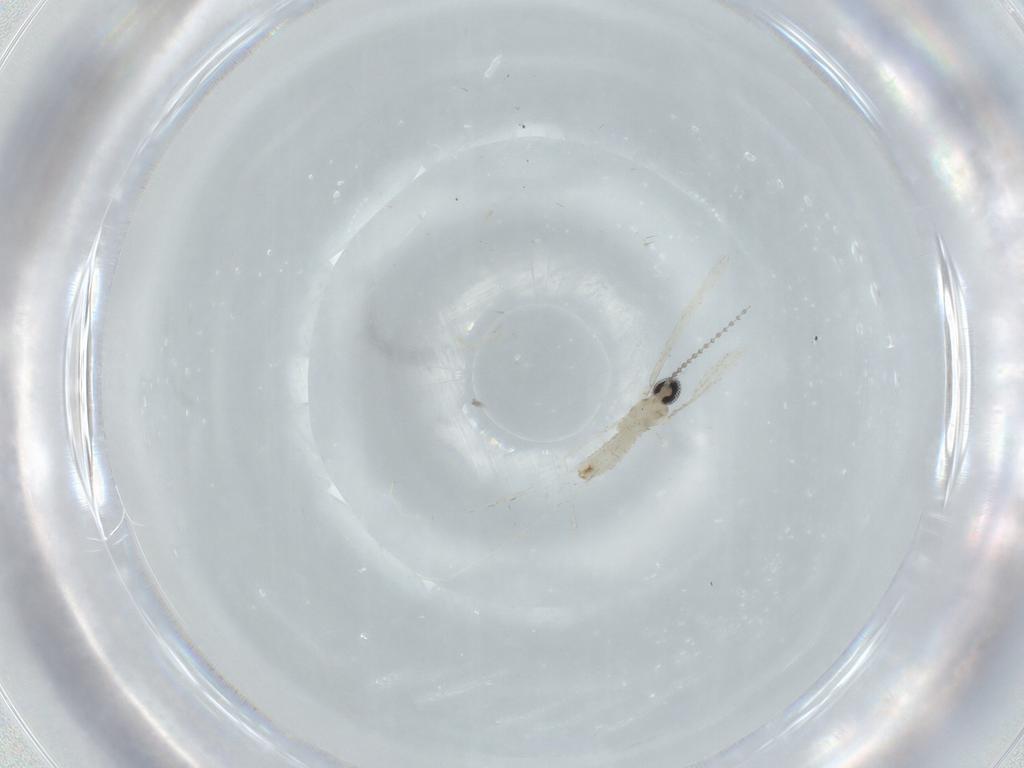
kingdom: Animalia
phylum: Arthropoda
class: Insecta
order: Diptera
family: Cecidomyiidae
